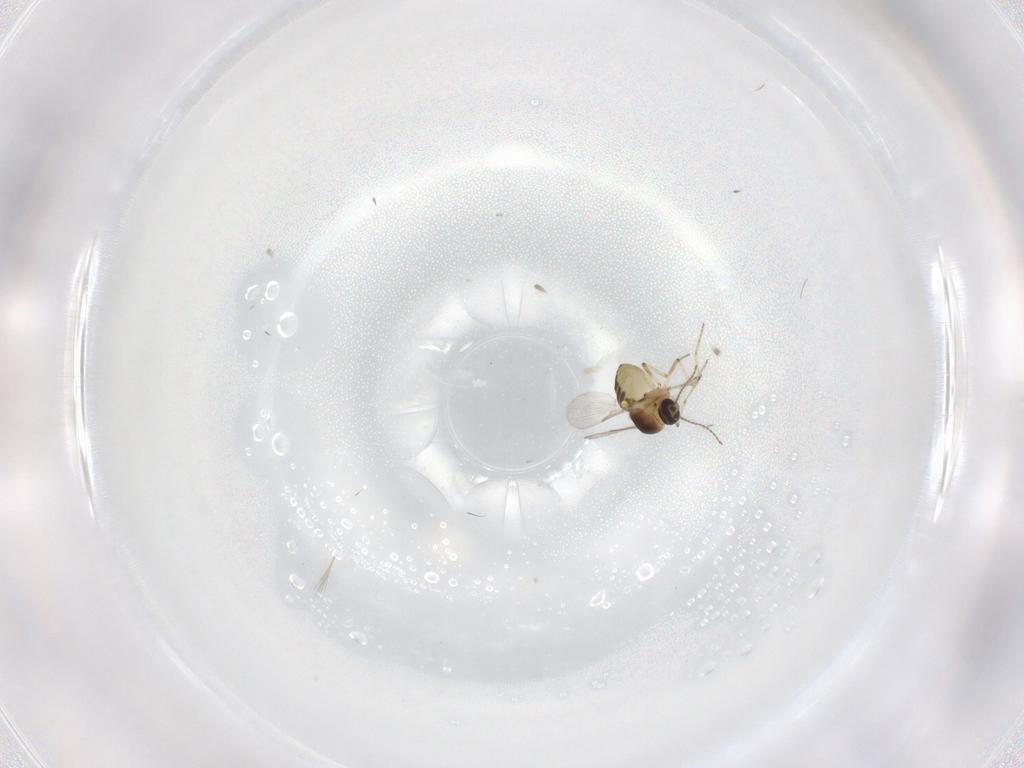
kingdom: Animalia
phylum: Arthropoda
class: Insecta
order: Diptera
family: Ceratopogonidae
